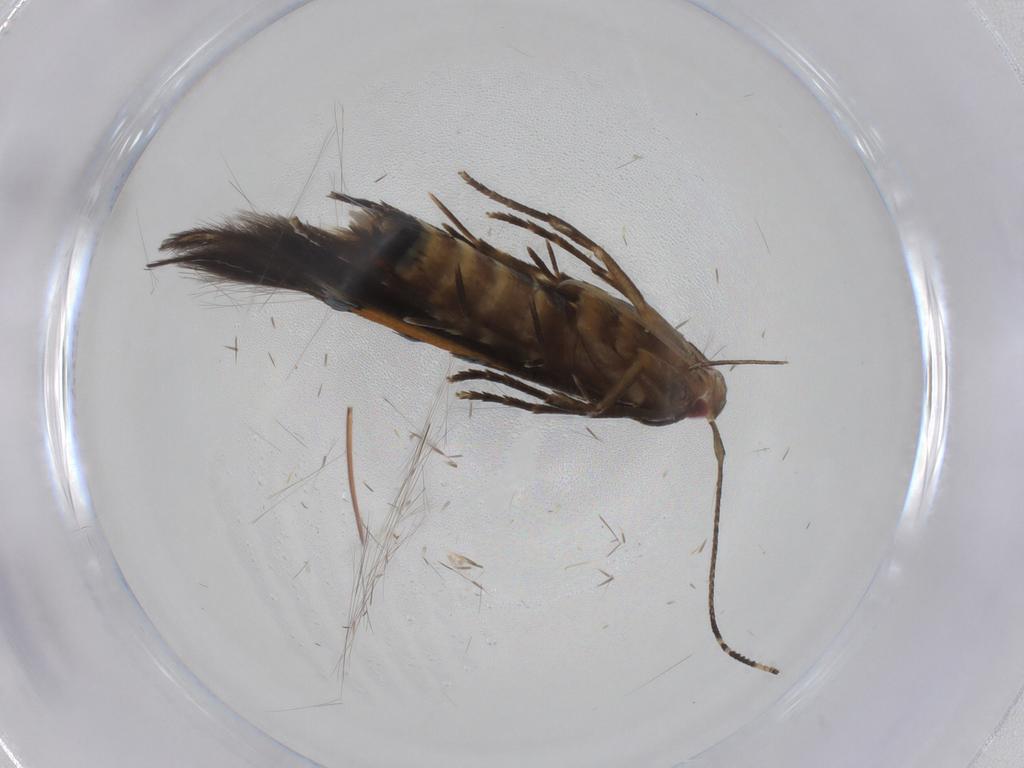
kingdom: Animalia
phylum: Arthropoda
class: Insecta
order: Lepidoptera
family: Cosmopterigidae
